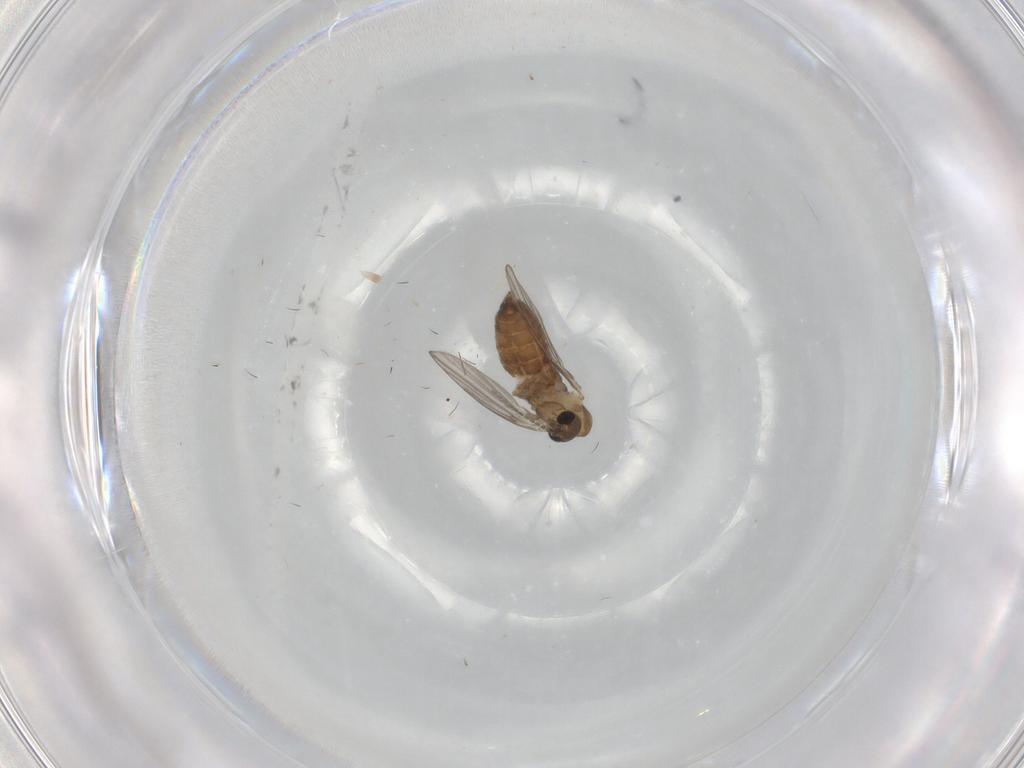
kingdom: Animalia
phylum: Arthropoda
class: Insecta
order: Diptera
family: Psychodidae
